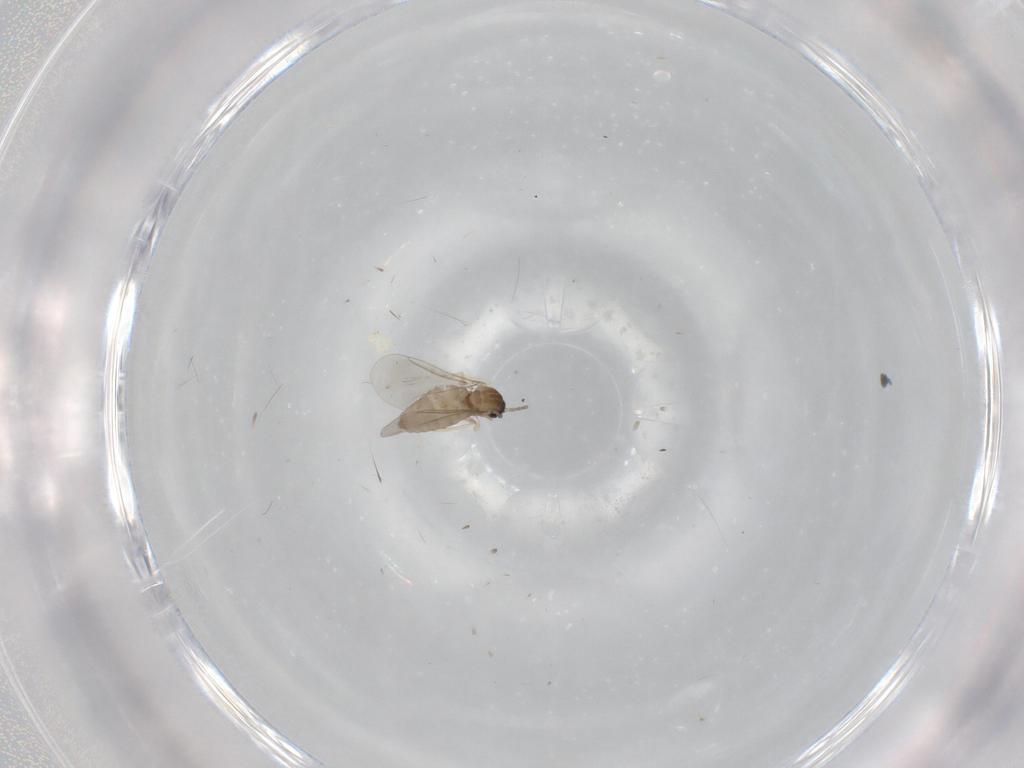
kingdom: Animalia
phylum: Arthropoda
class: Insecta
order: Diptera
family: Cecidomyiidae
